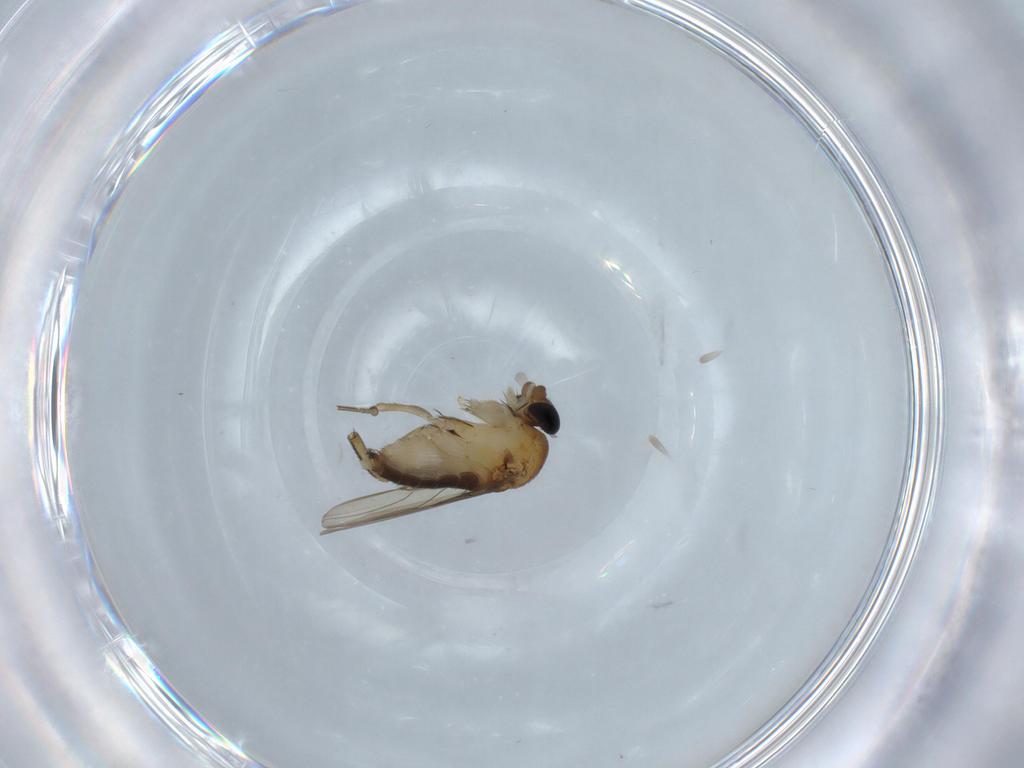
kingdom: Animalia
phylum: Arthropoda
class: Insecta
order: Diptera
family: Phoridae
